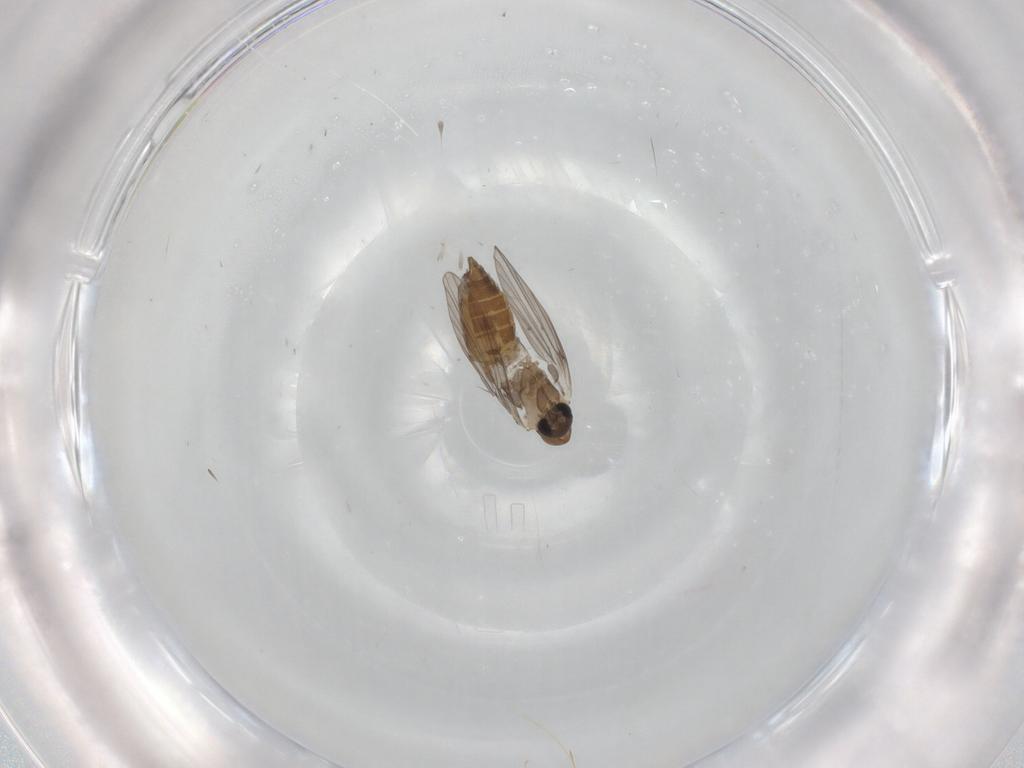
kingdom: Animalia
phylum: Arthropoda
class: Insecta
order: Diptera
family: Psychodidae
